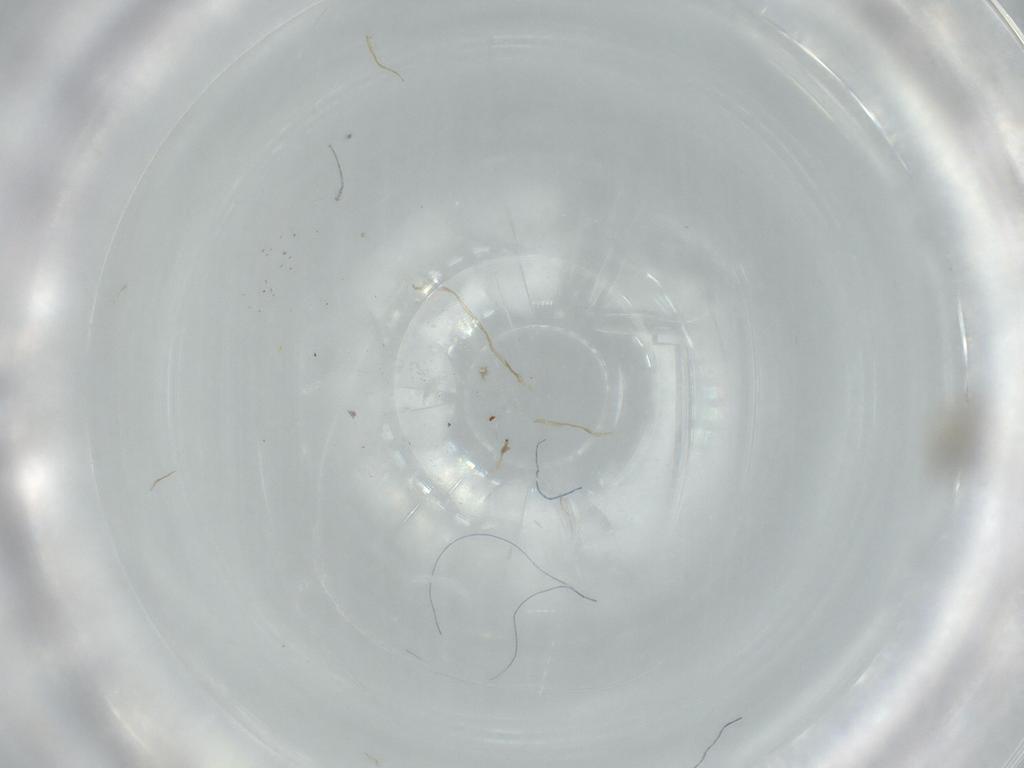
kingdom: Animalia
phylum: Arthropoda
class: Insecta
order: Diptera
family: Cecidomyiidae
